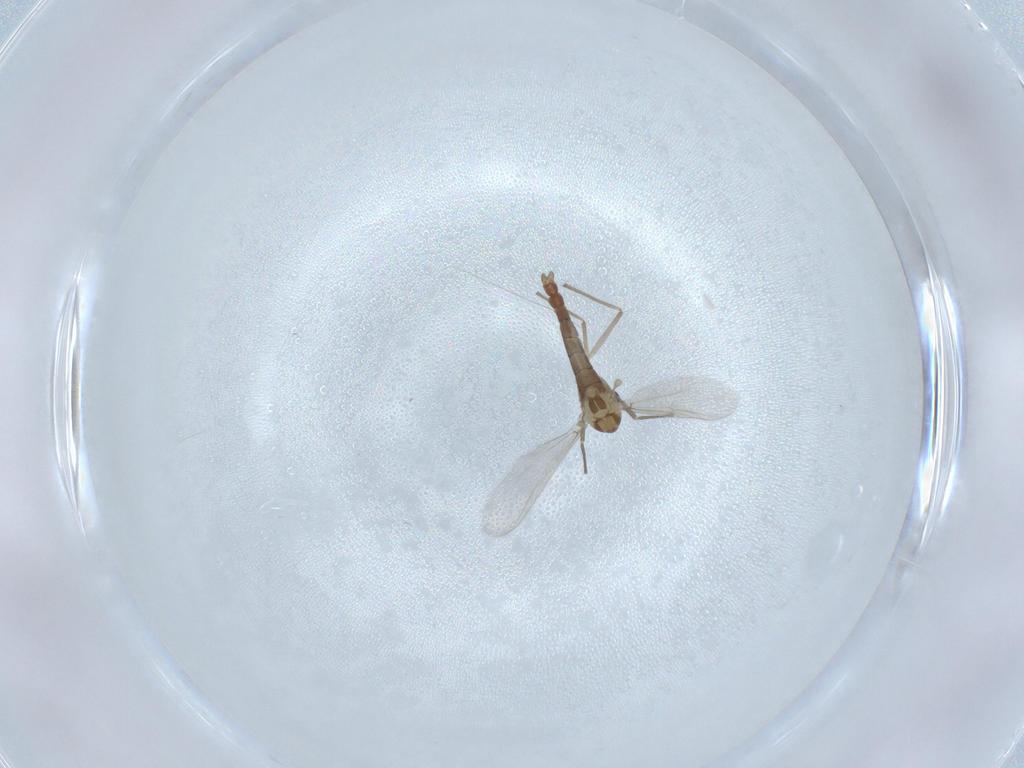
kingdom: Animalia
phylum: Arthropoda
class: Insecta
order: Diptera
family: Chironomidae
